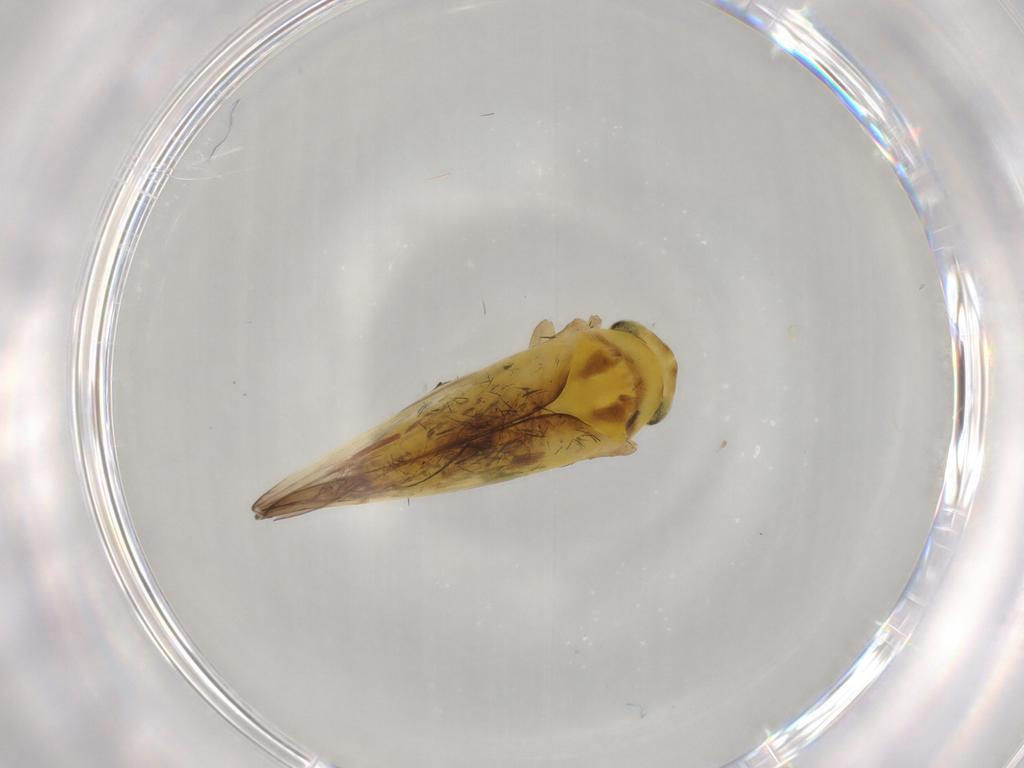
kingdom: Animalia
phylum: Arthropoda
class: Insecta
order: Hemiptera
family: Cicadellidae
